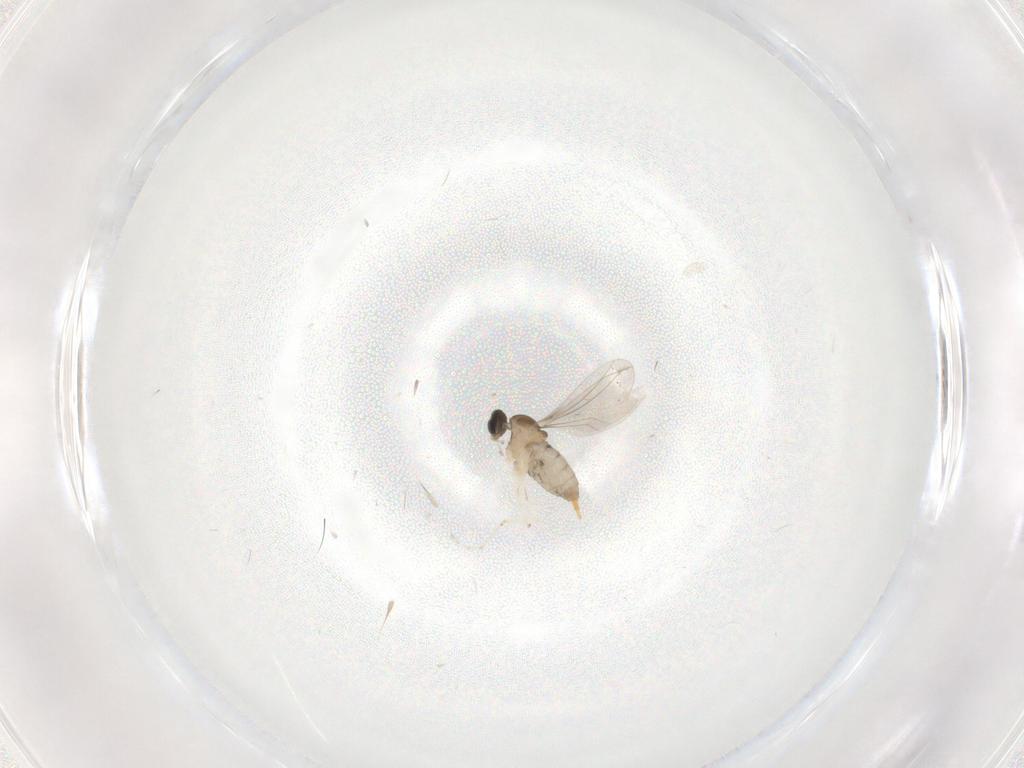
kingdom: Animalia
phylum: Arthropoda
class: Insecta
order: Diptera
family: Cecidomyiidae
